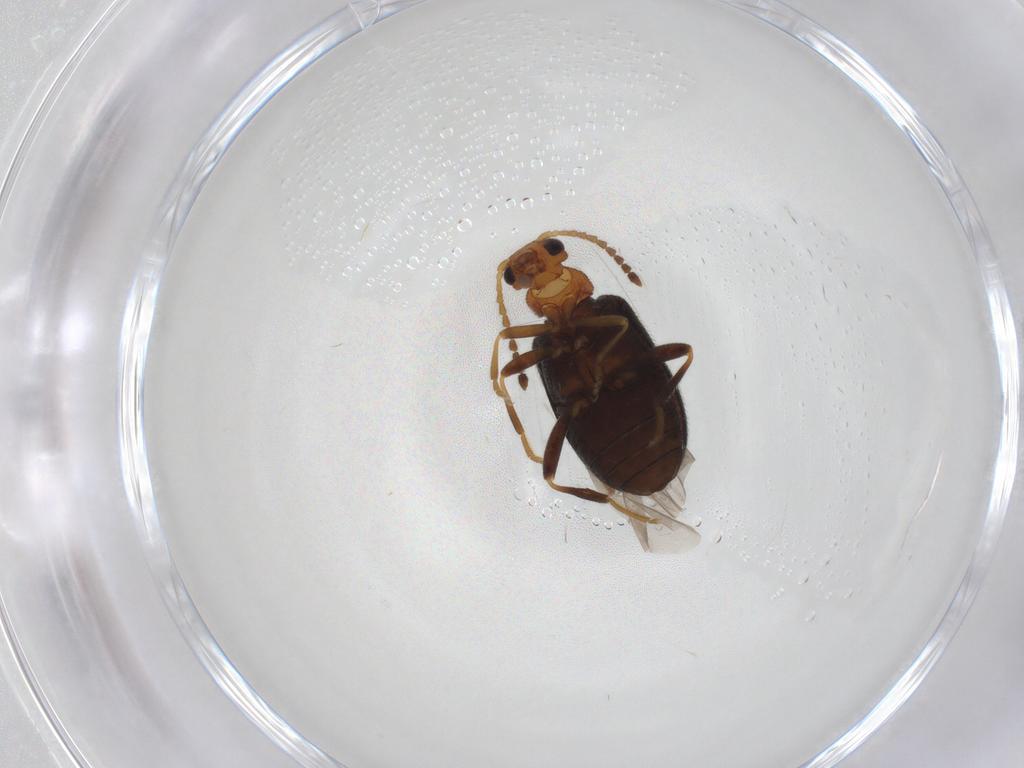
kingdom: Animalia
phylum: Arthropoda
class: Insecta
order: Coleoptera
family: Aderidae
